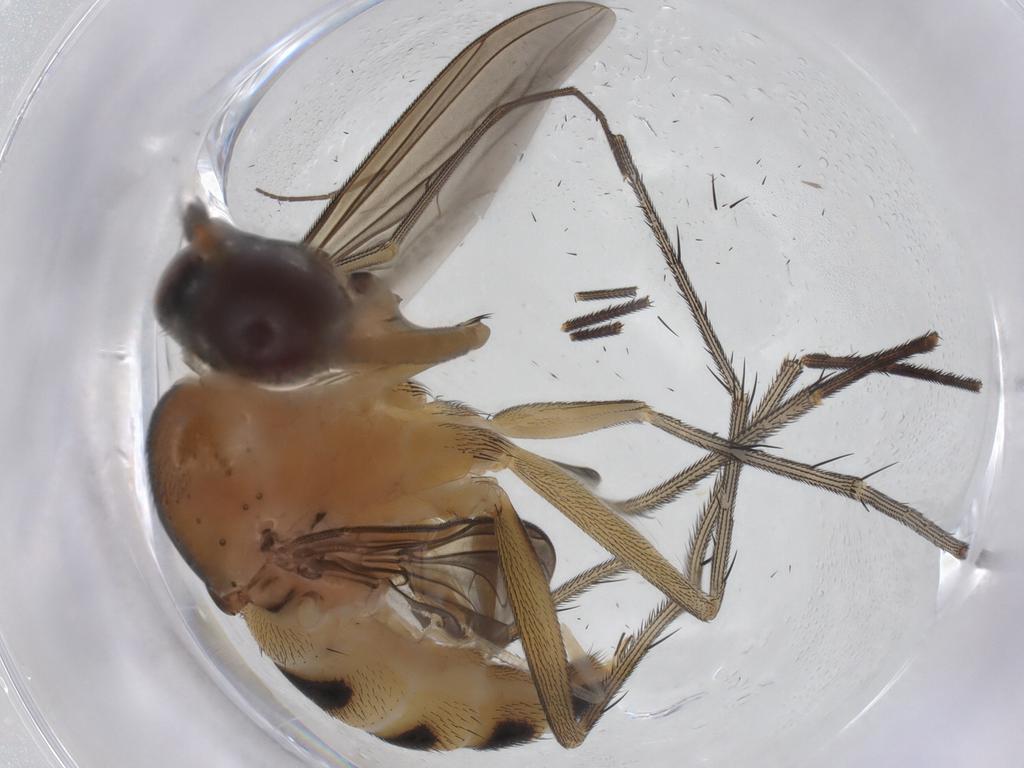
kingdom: Animalia
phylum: Arthropoda
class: Insecta
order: Diptera
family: Dolichopodidae
